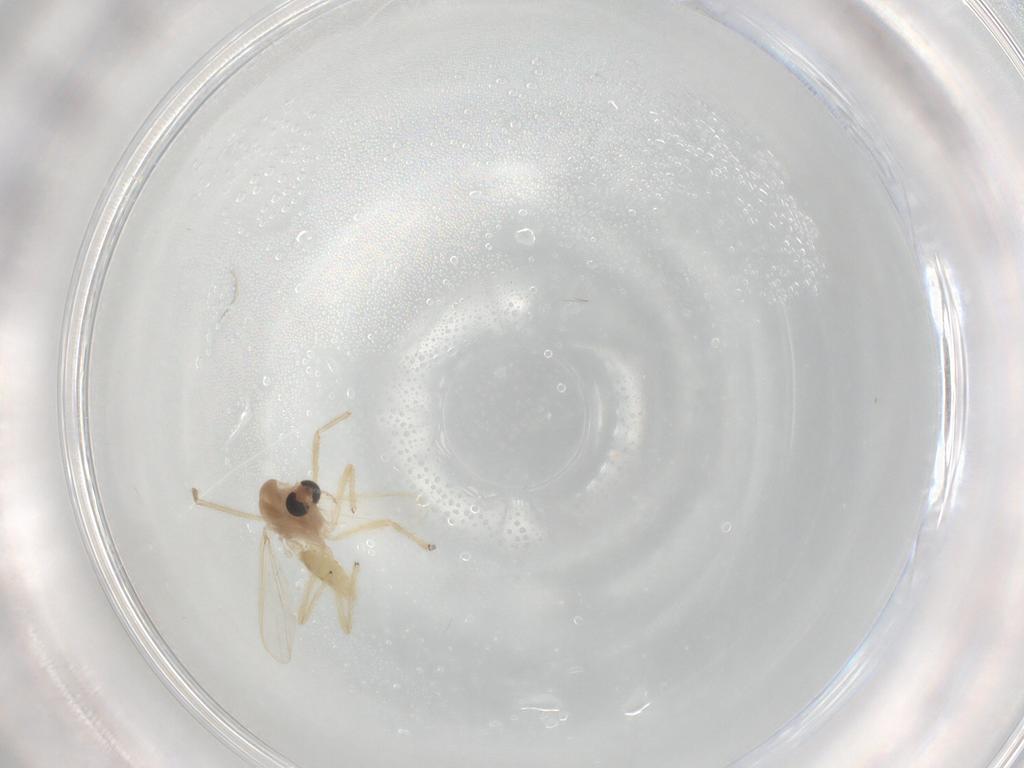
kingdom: Animalia
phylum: Arthropoda
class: Insecta
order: Diptera
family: Chironomidae
